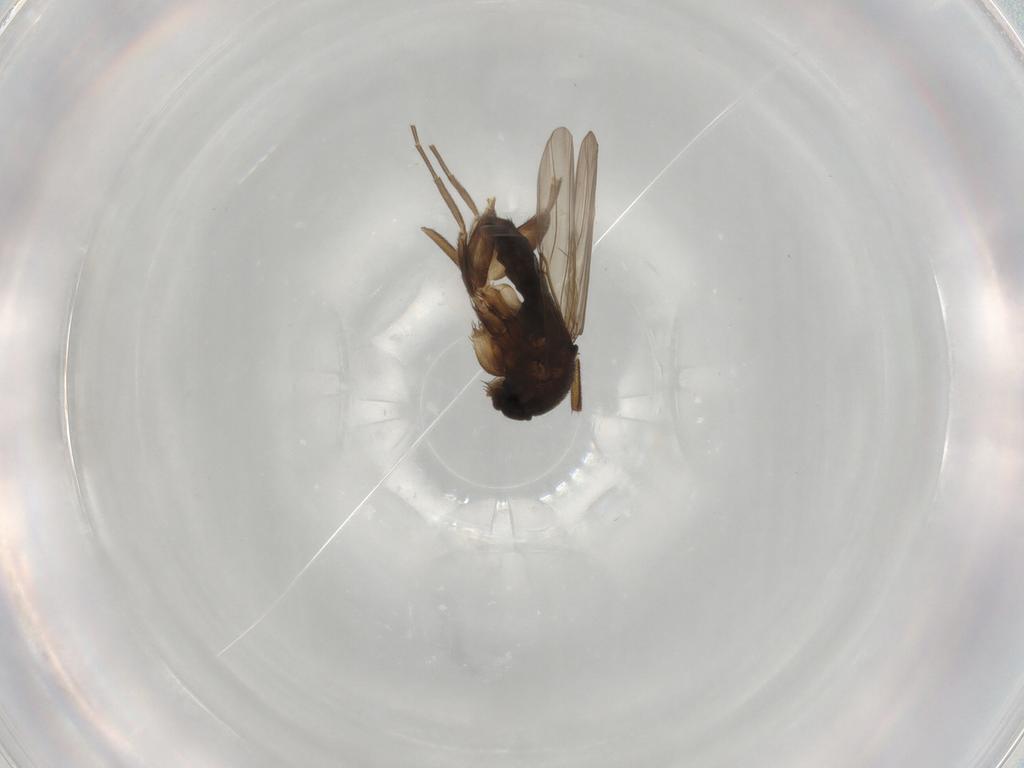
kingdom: Animalia
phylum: Arthropoda
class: Insecta
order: Diptera
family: Phoridae
